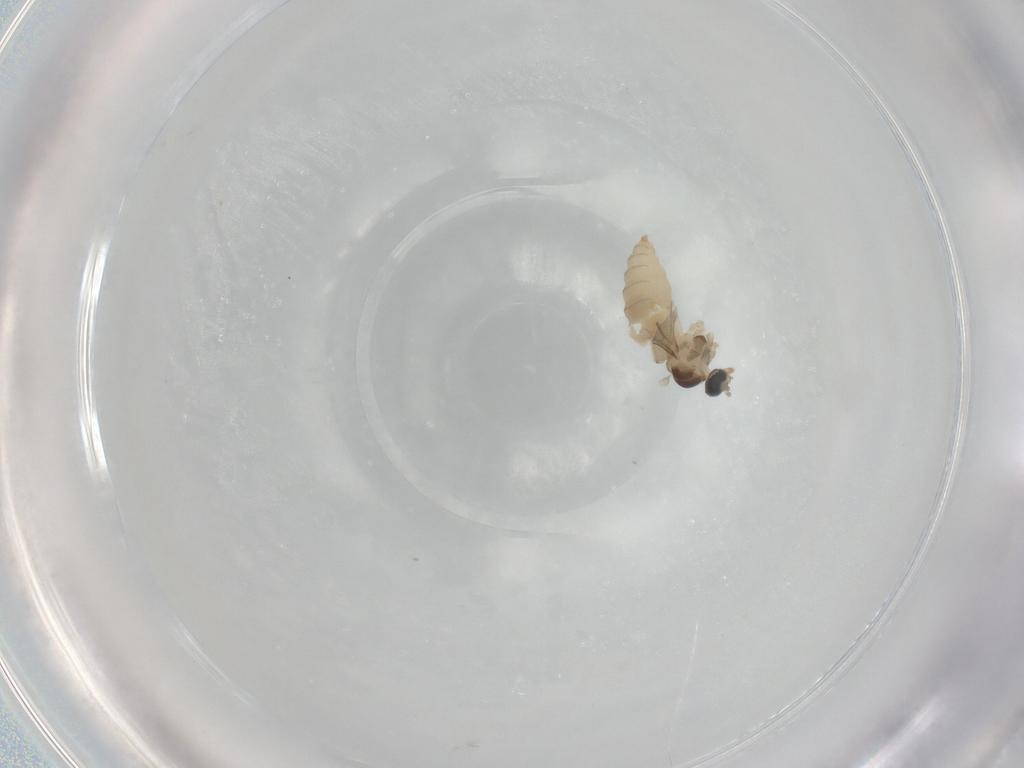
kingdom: Animalia
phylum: Arthropoda
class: Insecta
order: Diptera
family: Cecidomyiidae
